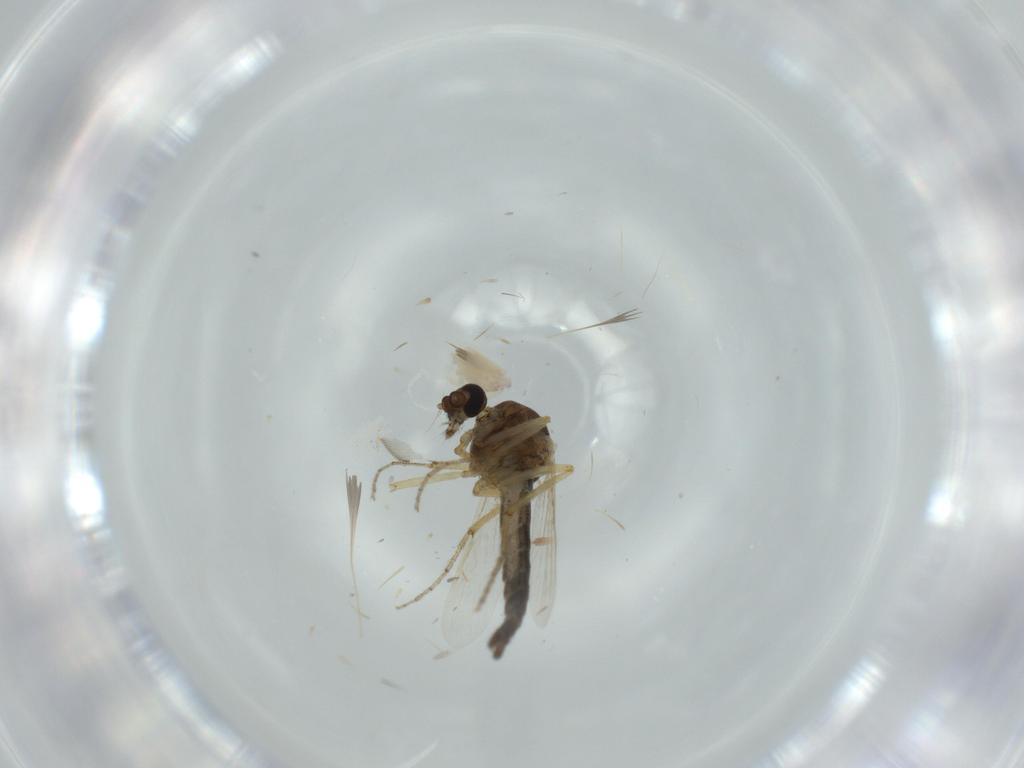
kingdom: Animalia
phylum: Arthropoda
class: Insecta
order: Diptera
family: Ceratopogonidae
